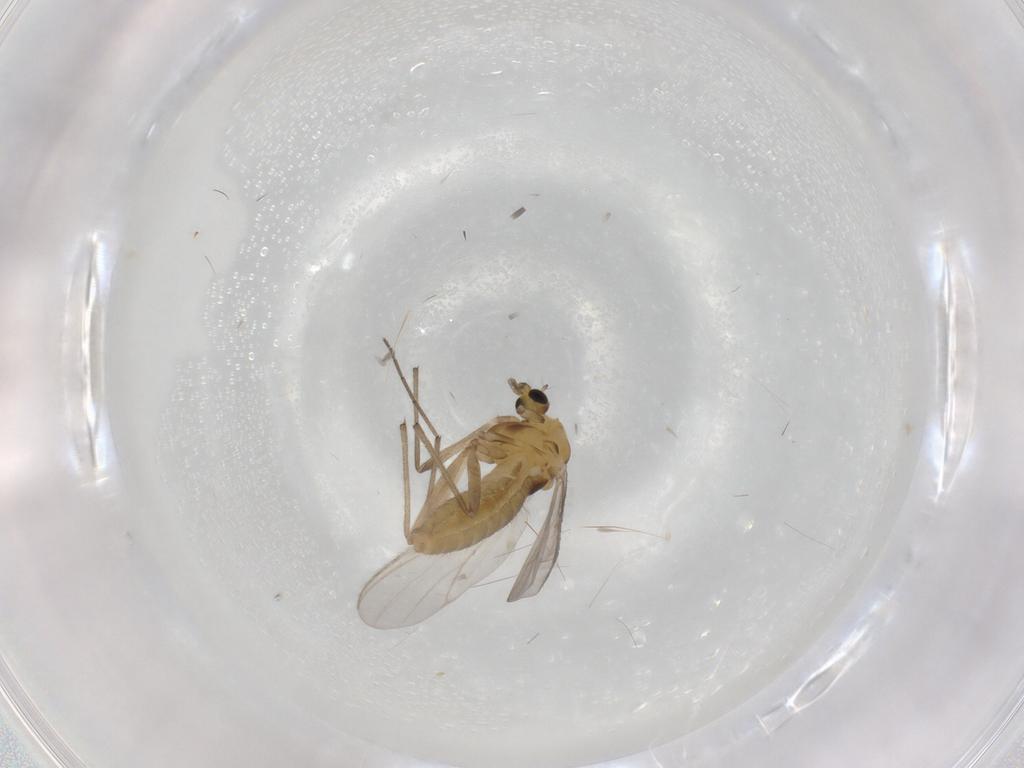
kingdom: Animalia
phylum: Arthropoda
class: Insecta
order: Diptera
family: Chironomidae
